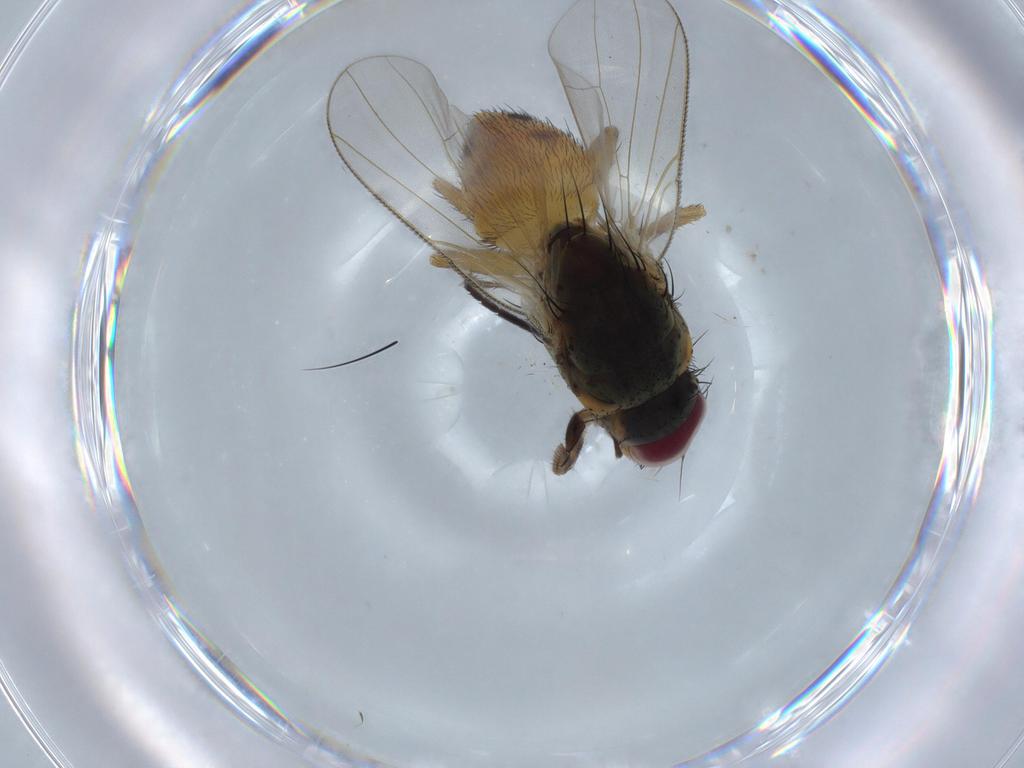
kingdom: Animalia
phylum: Arthropoda
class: Insecta
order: Diptera
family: Muscidae
